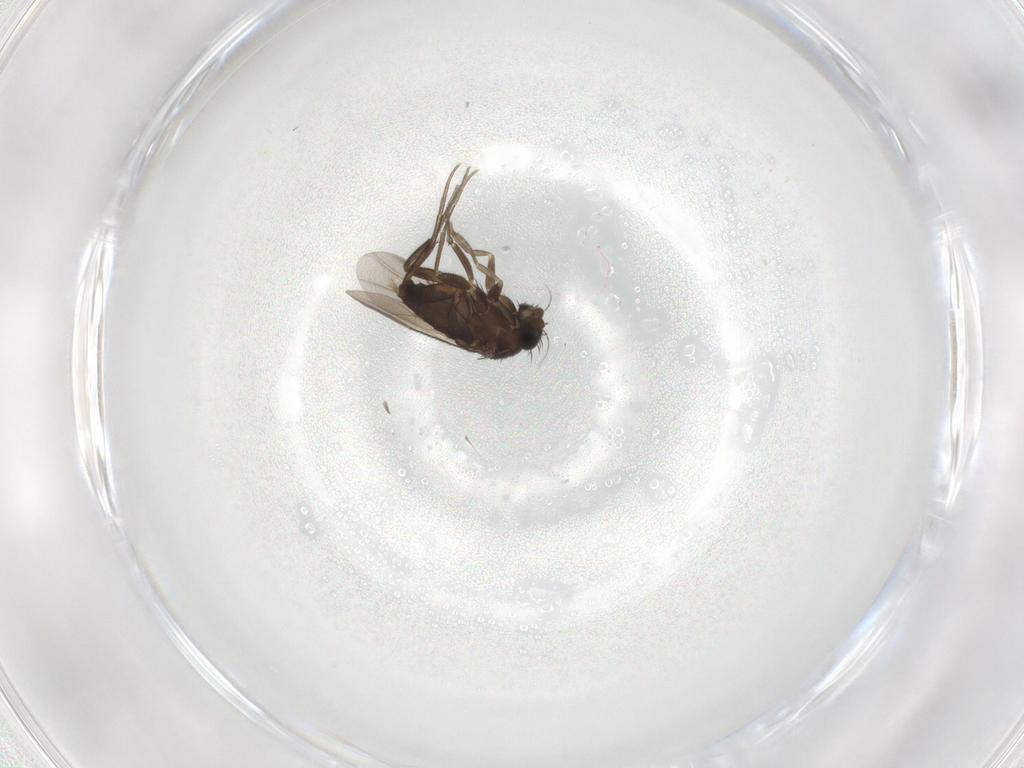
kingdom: Animalia
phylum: Arthropoda
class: Insecta
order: Diptera
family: Phoridae
